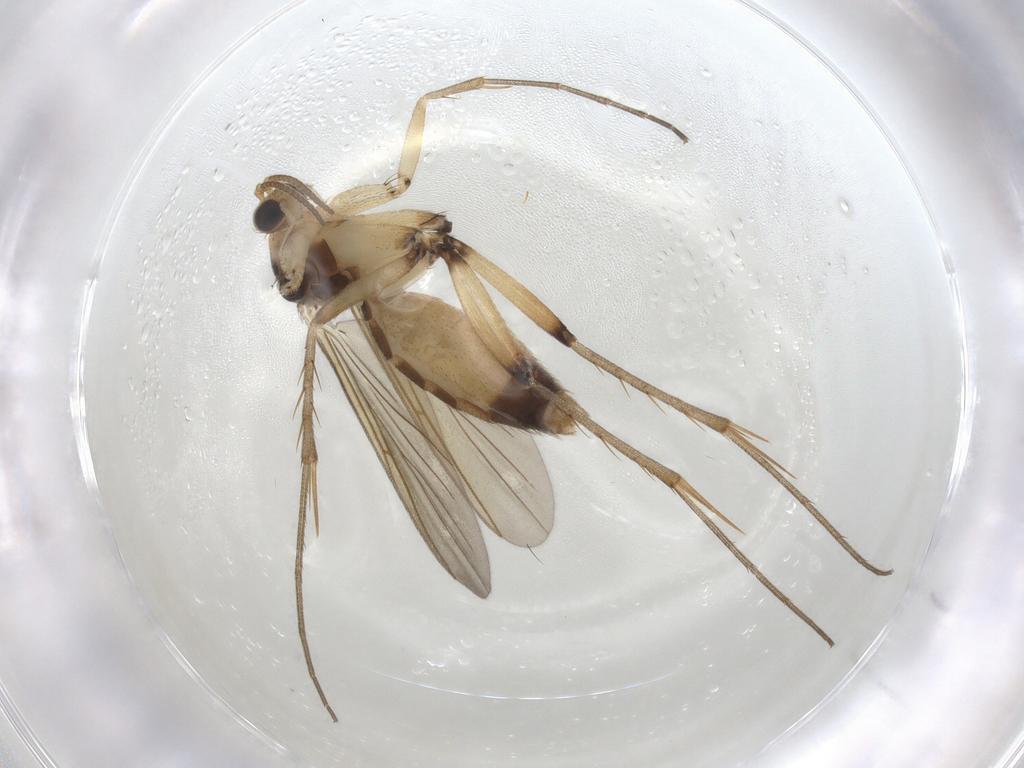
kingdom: Animalia
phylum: Arthropoda
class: Insecta
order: Diptera
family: Mycetophilidae
